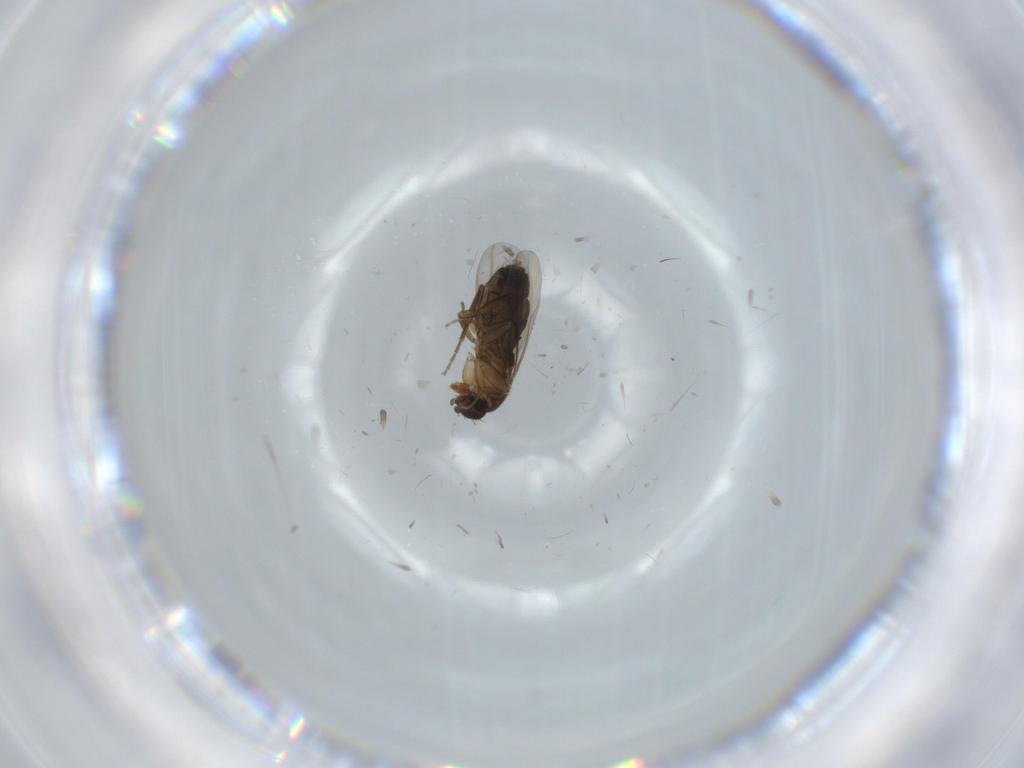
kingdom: Animalia
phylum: Arthropoda
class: Insecta
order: Diptera
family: Phoridae
